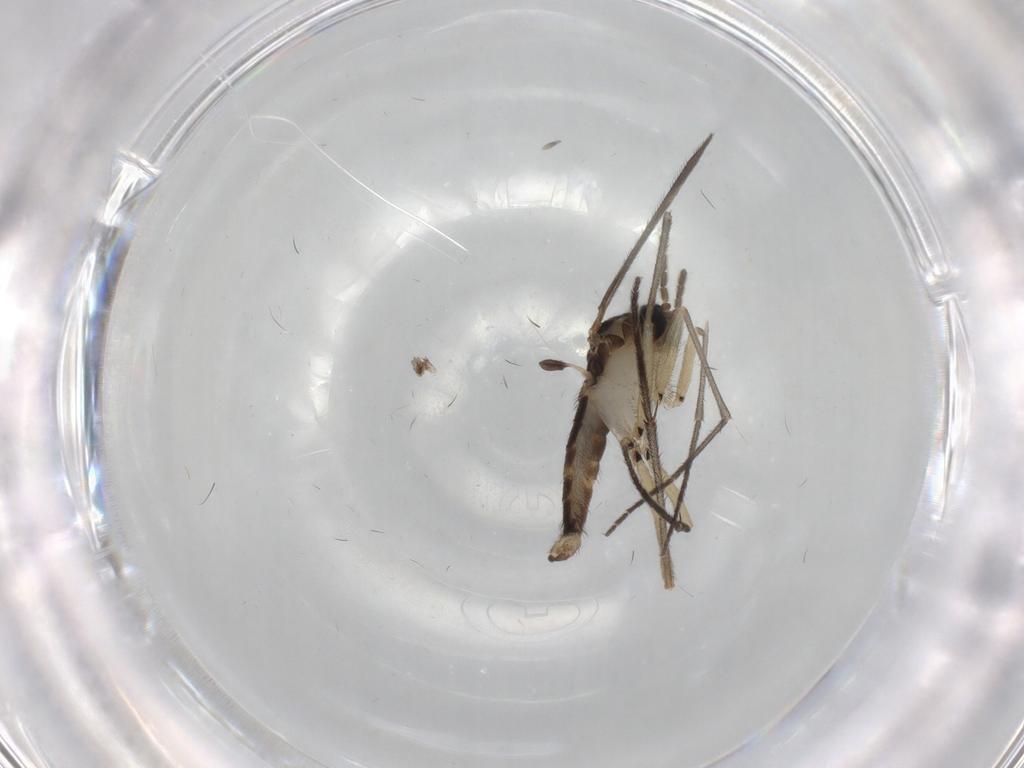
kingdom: Animalia
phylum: Arthropoda
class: Insecta
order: Diptera
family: Sciaridae
